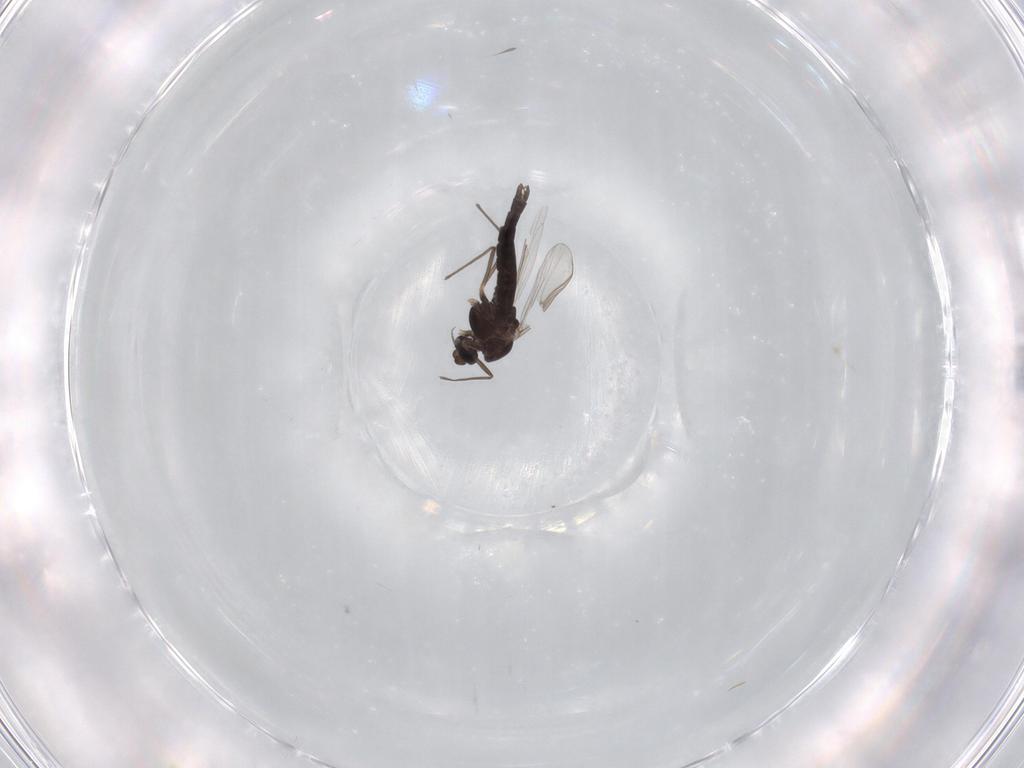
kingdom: Animalia
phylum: Arthropoda
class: Insecta
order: Diptera
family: Chironomidae
